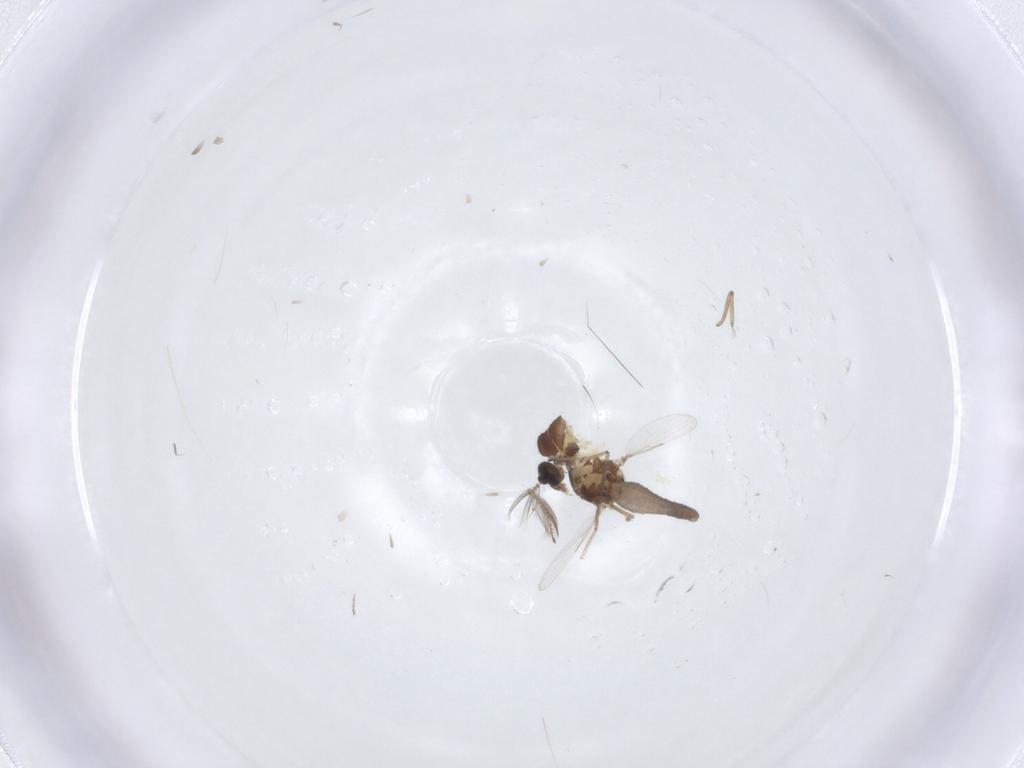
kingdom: Animalia
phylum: Arthropoda
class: Insecta
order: Diptera
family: Ceratopogonidae
